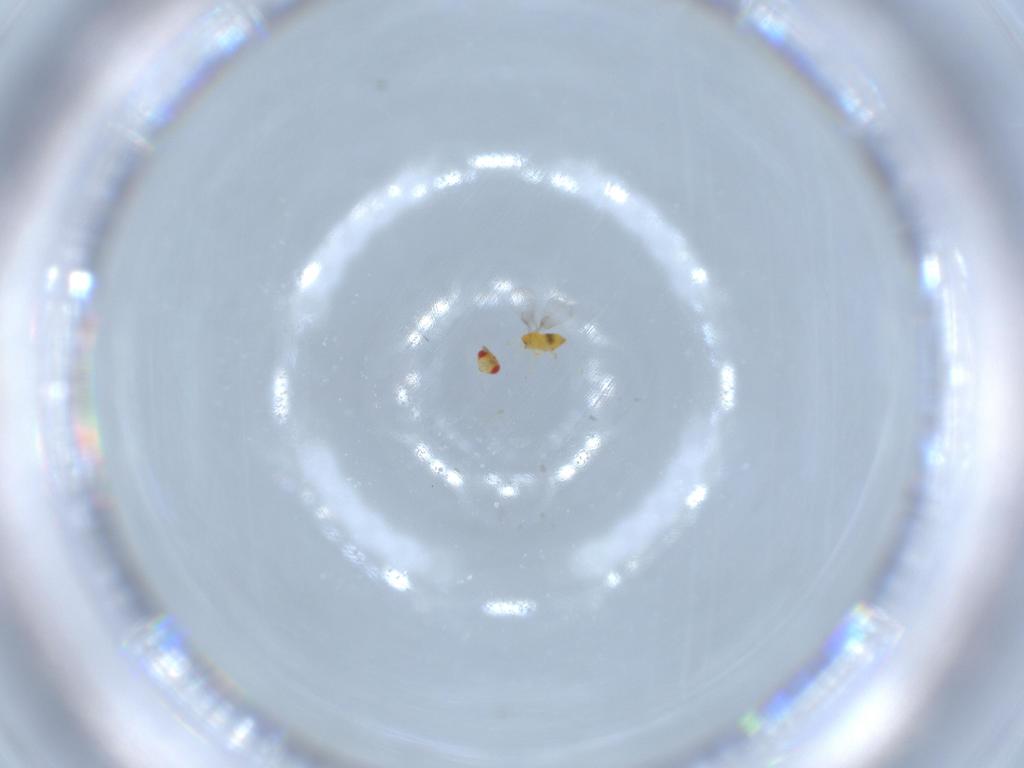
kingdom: Animalia
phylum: Arthropoda
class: Insecta
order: Hymenoptera
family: Trichogrammatidae
